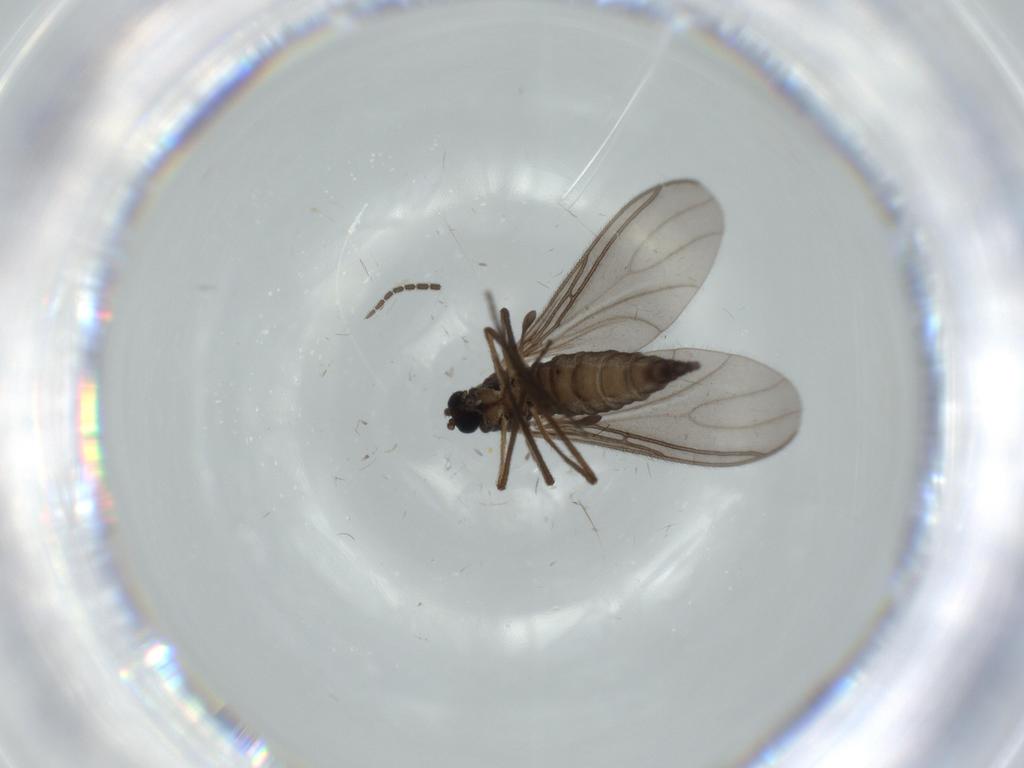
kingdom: Animalia
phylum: Arthropoda
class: Insecta
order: Diptera
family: Sciaridae
